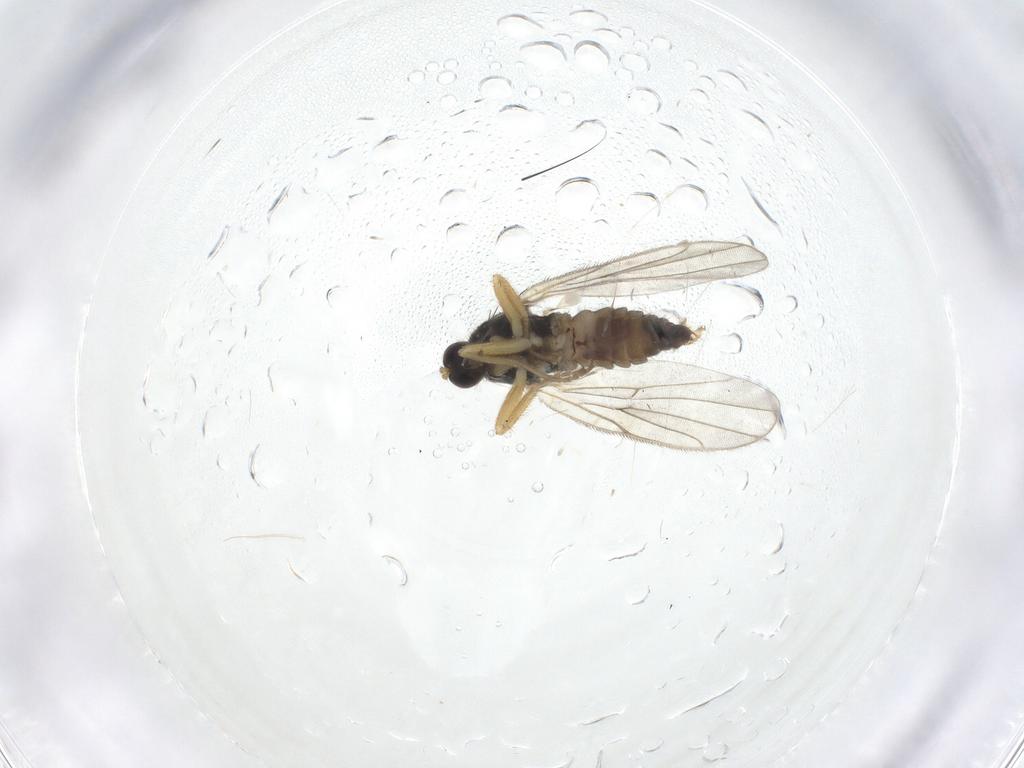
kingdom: Animalia
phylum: Arthropoda
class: Insecta
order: Diptera
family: Hybotidae
